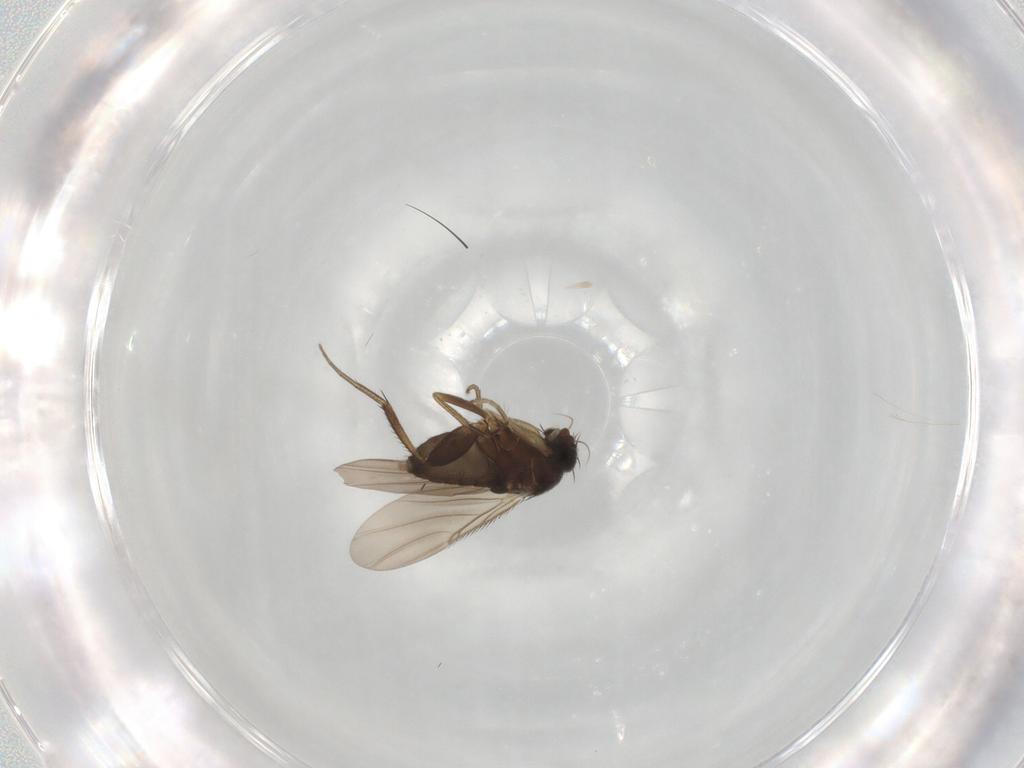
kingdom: Animalia
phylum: Arthropoda
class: Insecta
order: Diptera
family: Phoridae
